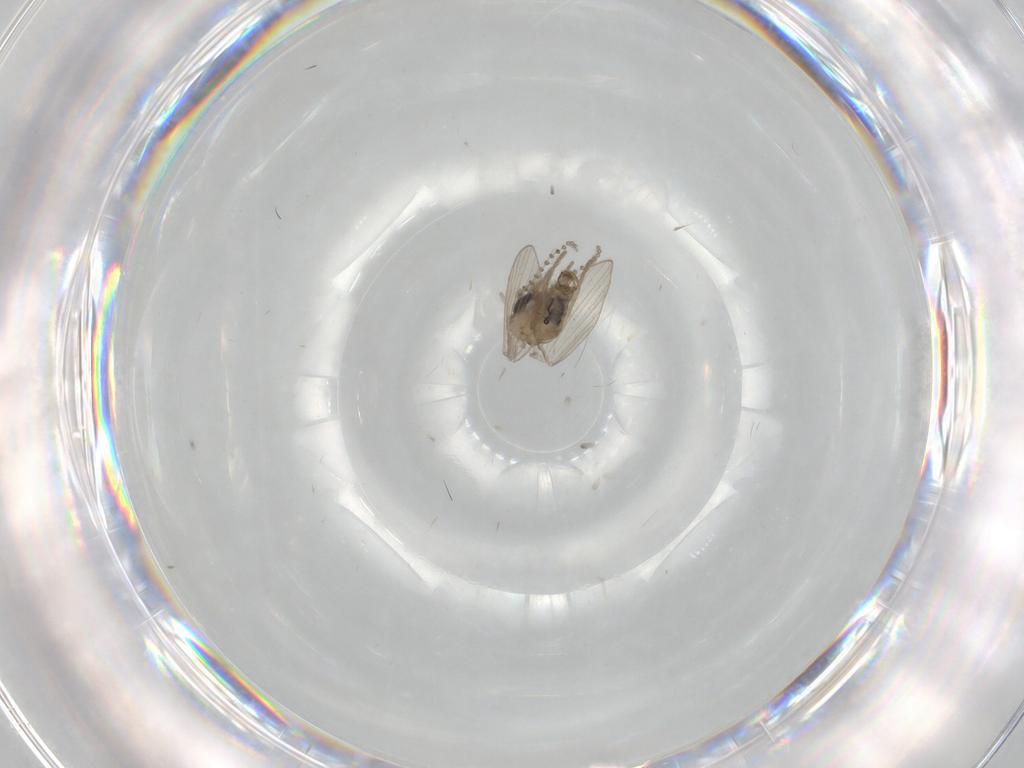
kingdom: Animalia
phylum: Arthropoda
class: Insecta
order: Diptera
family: Psychodidae
